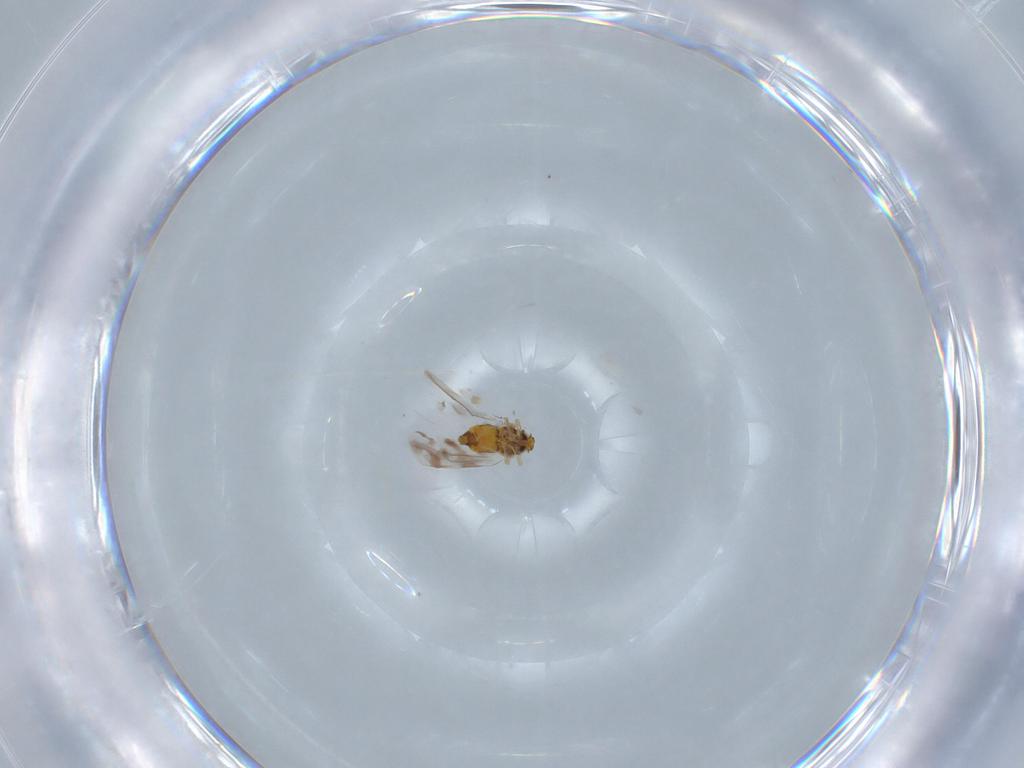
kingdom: Animalia
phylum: Arthropoda
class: Insecta
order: Hemiptera
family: Aleyrodidae
